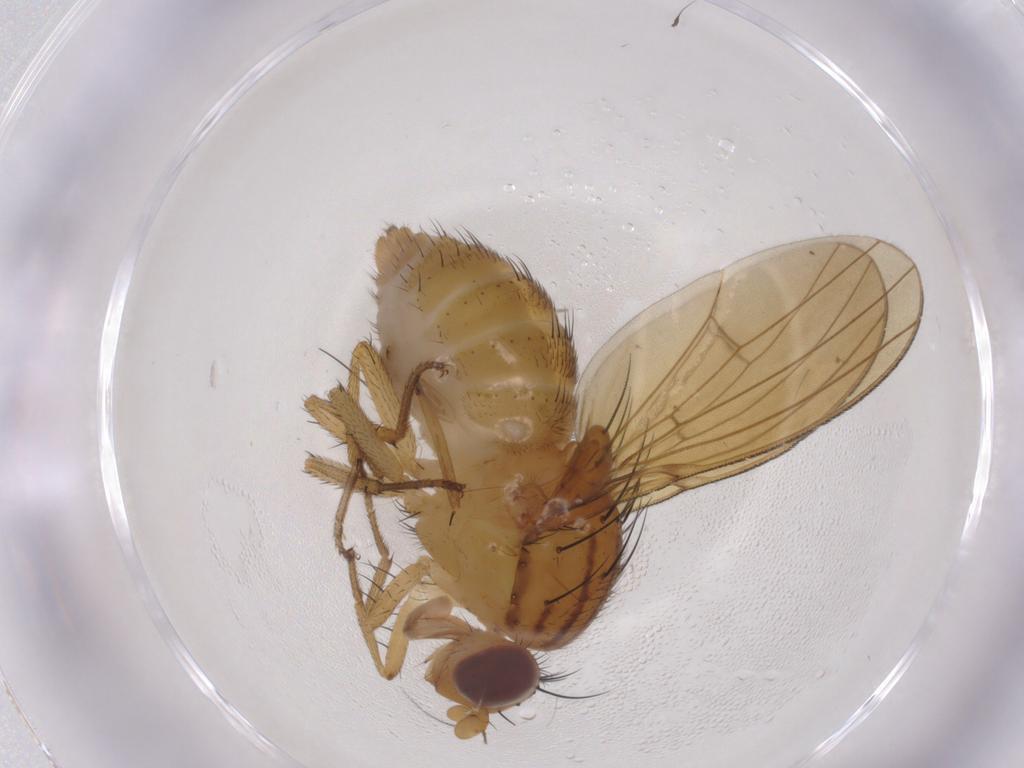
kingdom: Animalia
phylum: Arthropoda
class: Insecta
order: Diptera
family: Lauxaniidae
